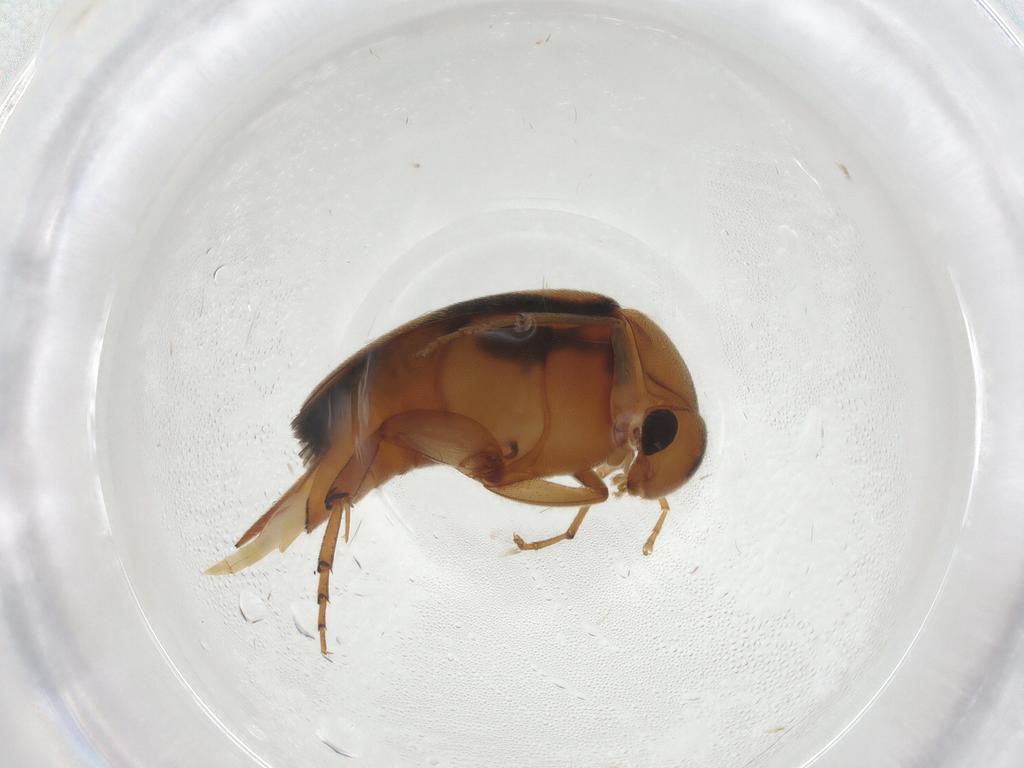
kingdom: Animalia
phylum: Arthropoda
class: Insecta
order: Coleoptera
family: Mordellidae
